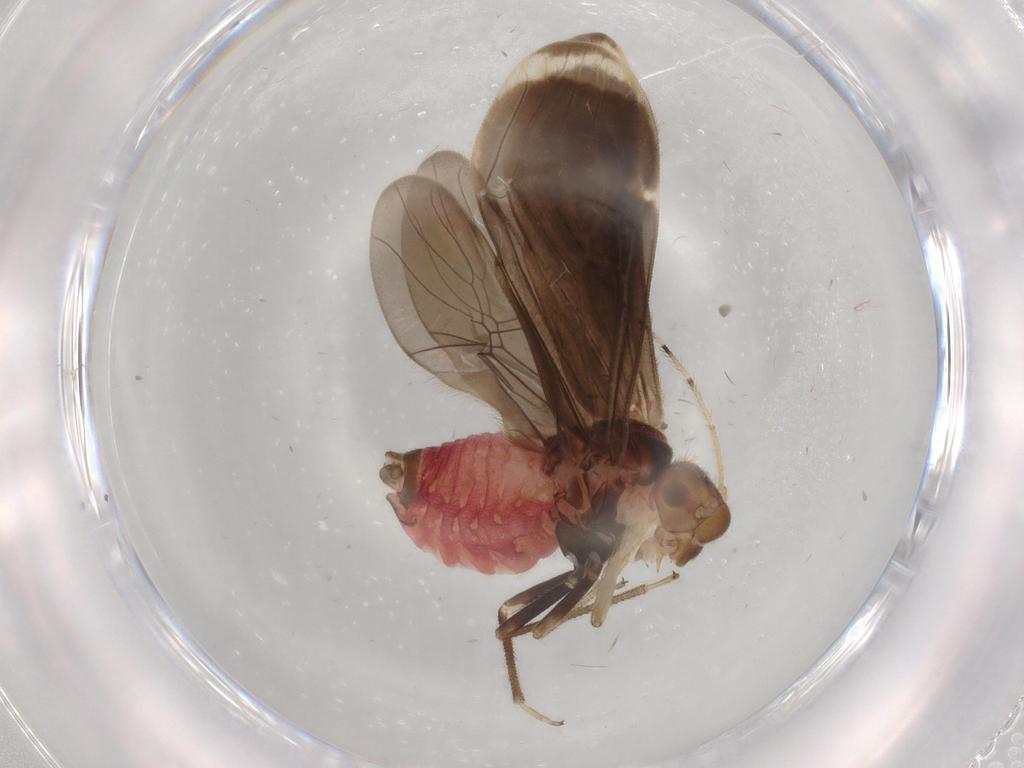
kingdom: Animalia
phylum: Arthropoda
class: Insecta
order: Psocodea
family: Amphipsocidae
